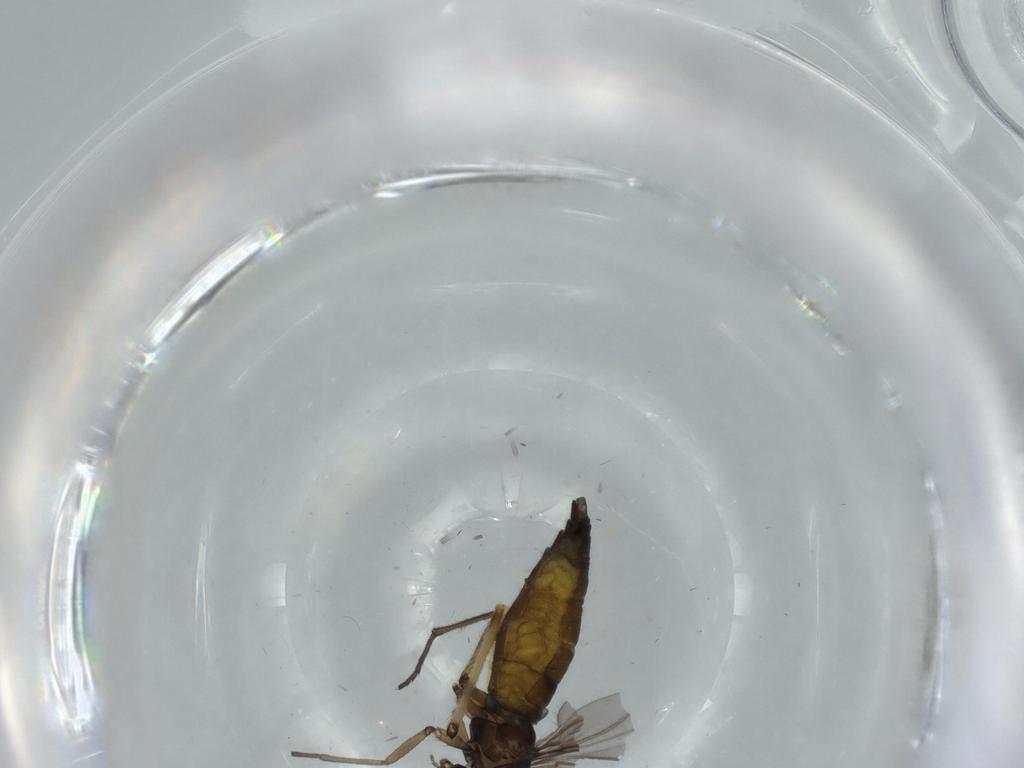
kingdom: Animalia
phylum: Arthropoda
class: Insecta
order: Diptera
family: Sciaridae
